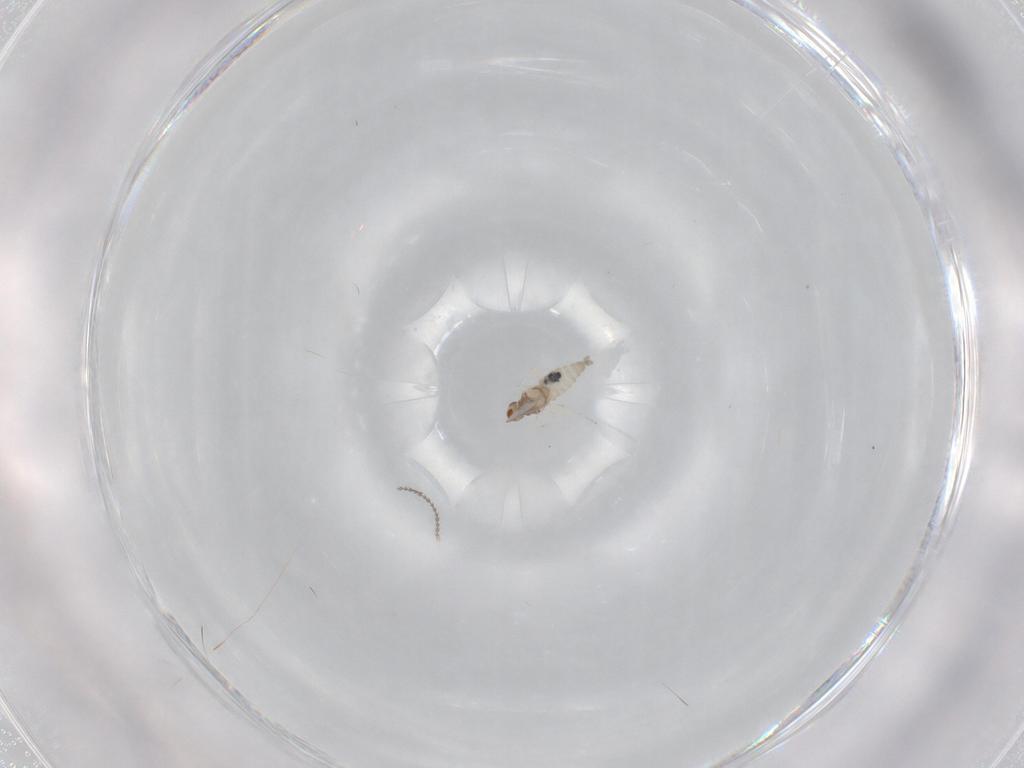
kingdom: Animalia
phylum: Arthropoda
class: Insecta
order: Diptera
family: Cecidomyiidae
